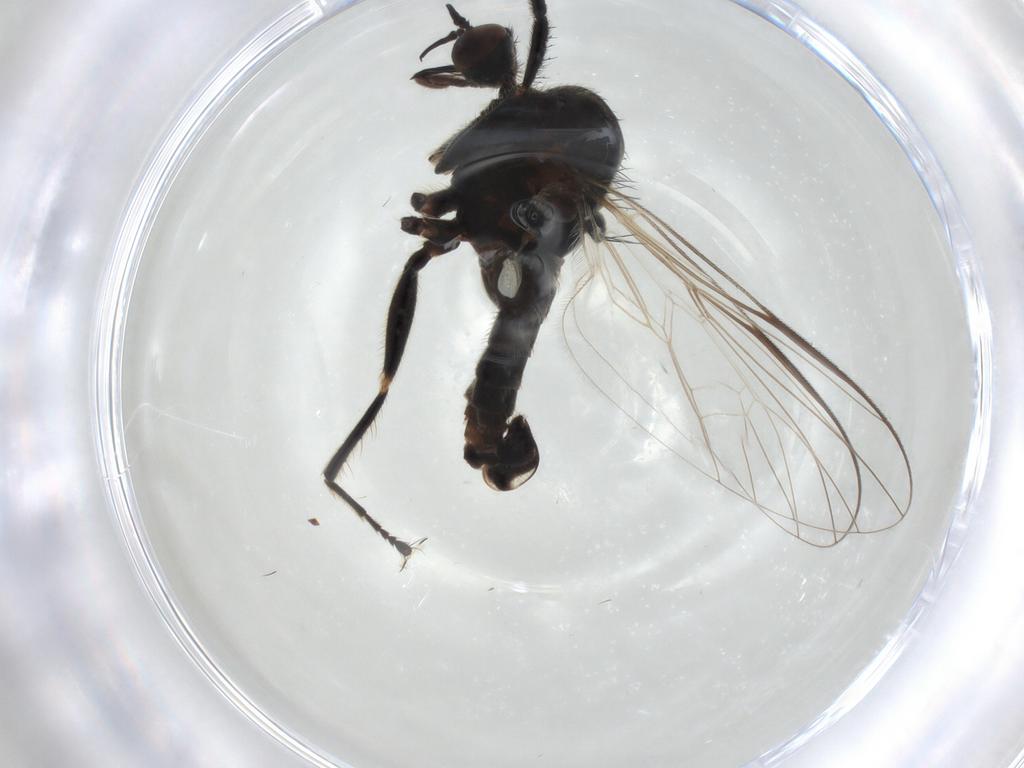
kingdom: Animalia
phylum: Arthropoda
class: Insecta
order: Diptera
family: Empididae
